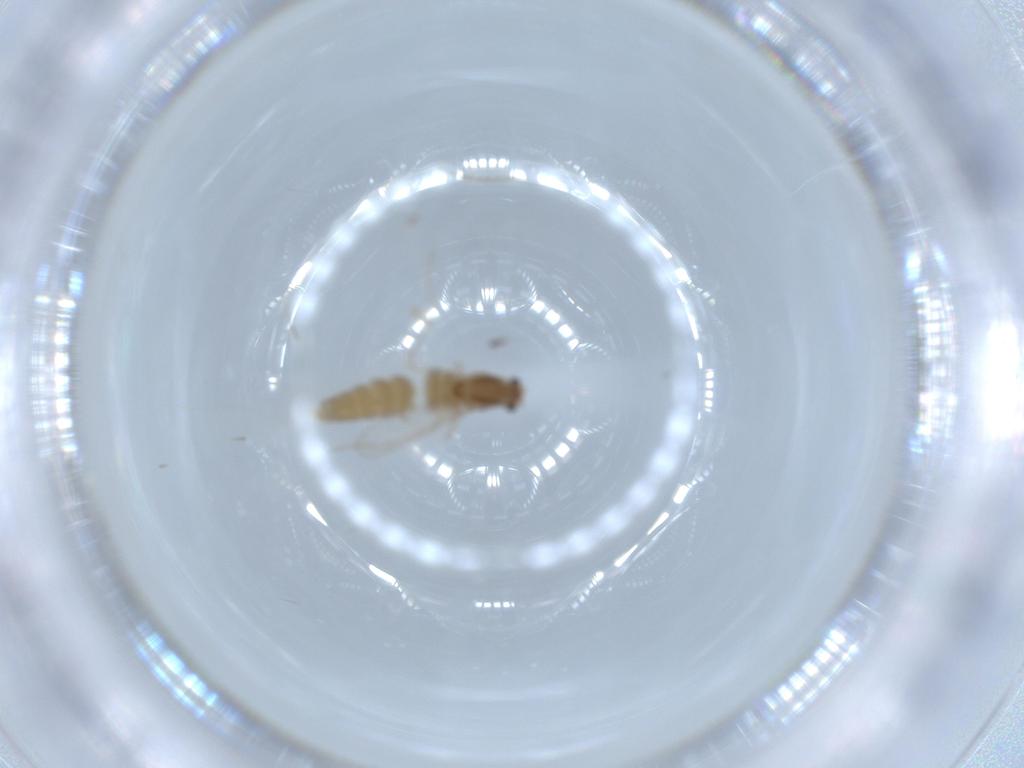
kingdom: Animalia
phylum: Arthropoda
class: Insecta
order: Diptera
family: Chironomidae
